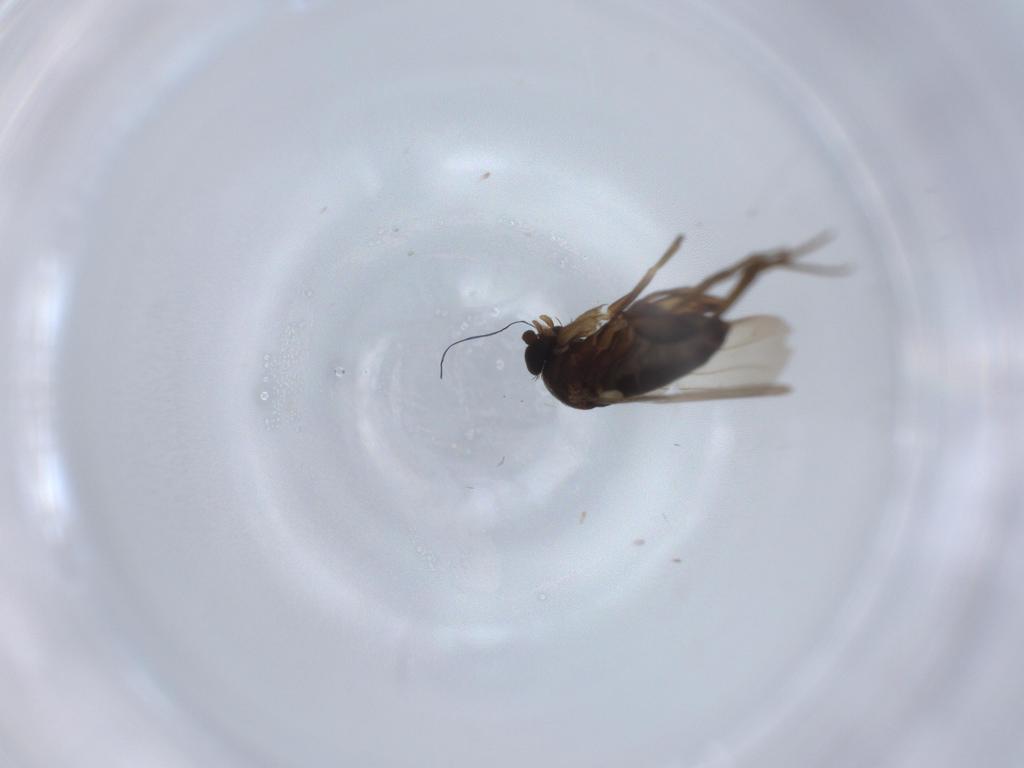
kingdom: Animalia
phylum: Arthropoda
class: Insecta
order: Diptera
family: Phoridae
